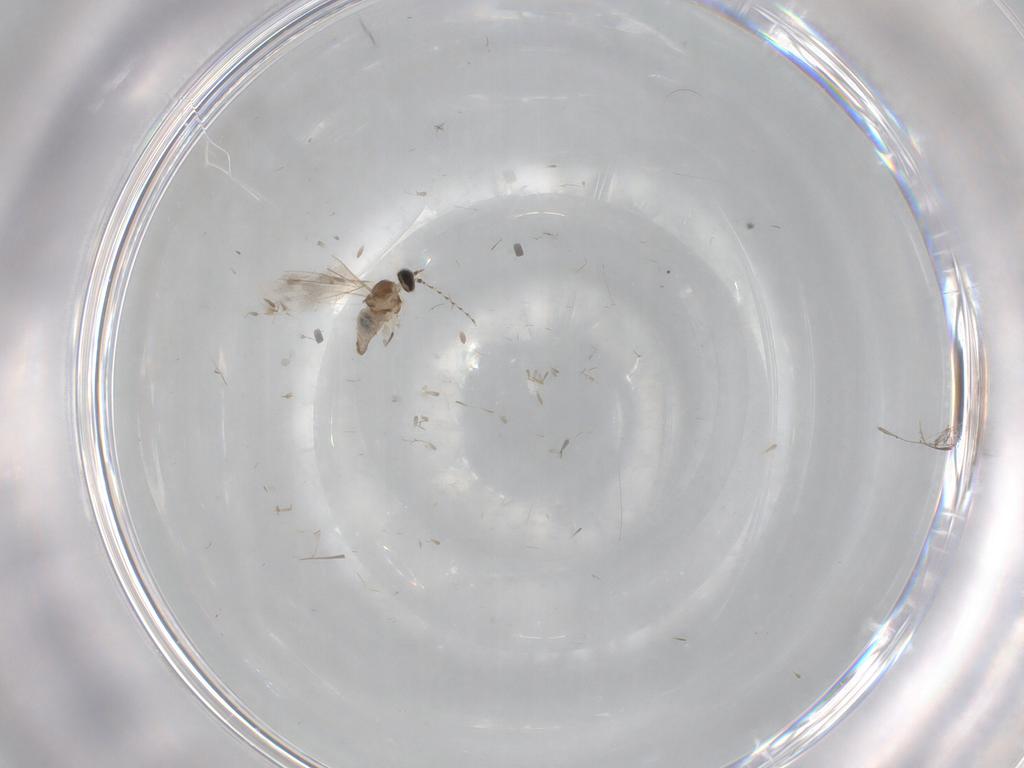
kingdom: Animalia
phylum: Arthropoda
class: Insecta
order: Diptera
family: Cecidomyiidae
